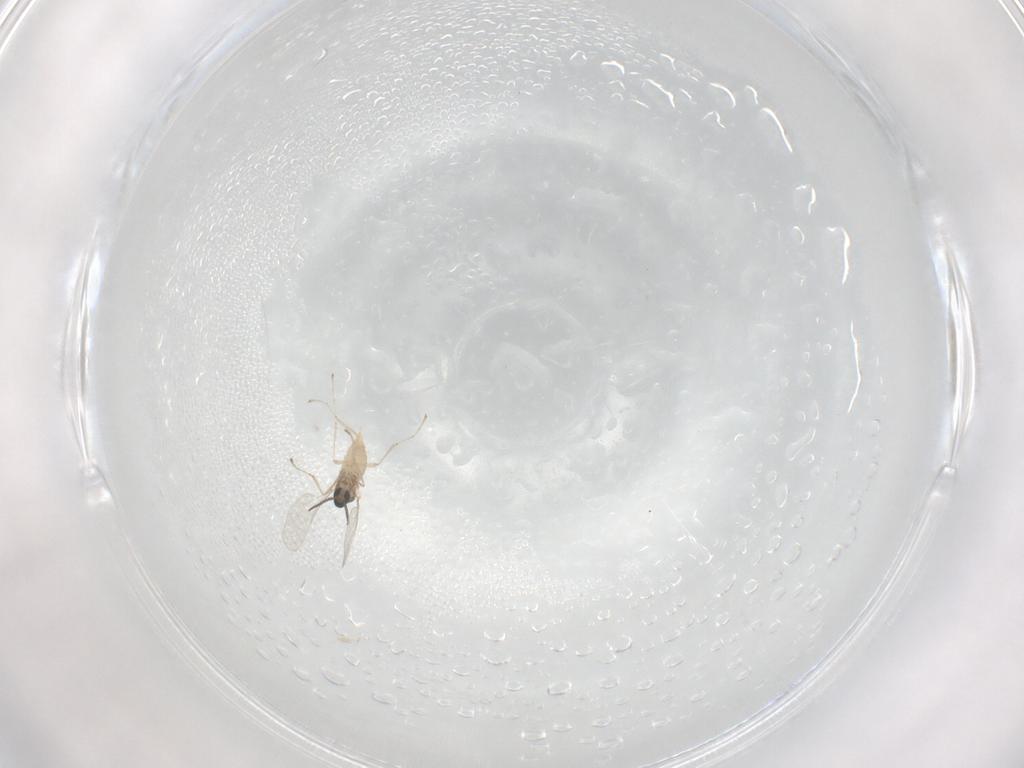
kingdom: Animalia
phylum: Arthropoda
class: Insecta
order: Diptera
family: Cecidomyiidae
